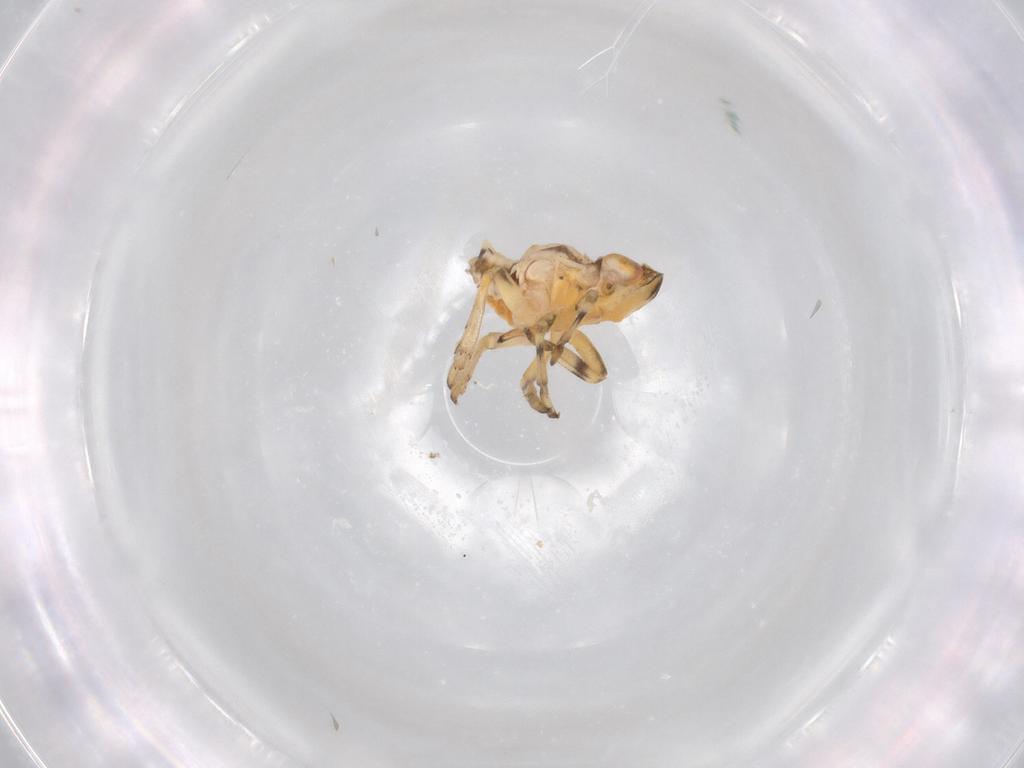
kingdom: Animalia
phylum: Arthropoda
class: Insecta
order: Hemiptera
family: Issidae
